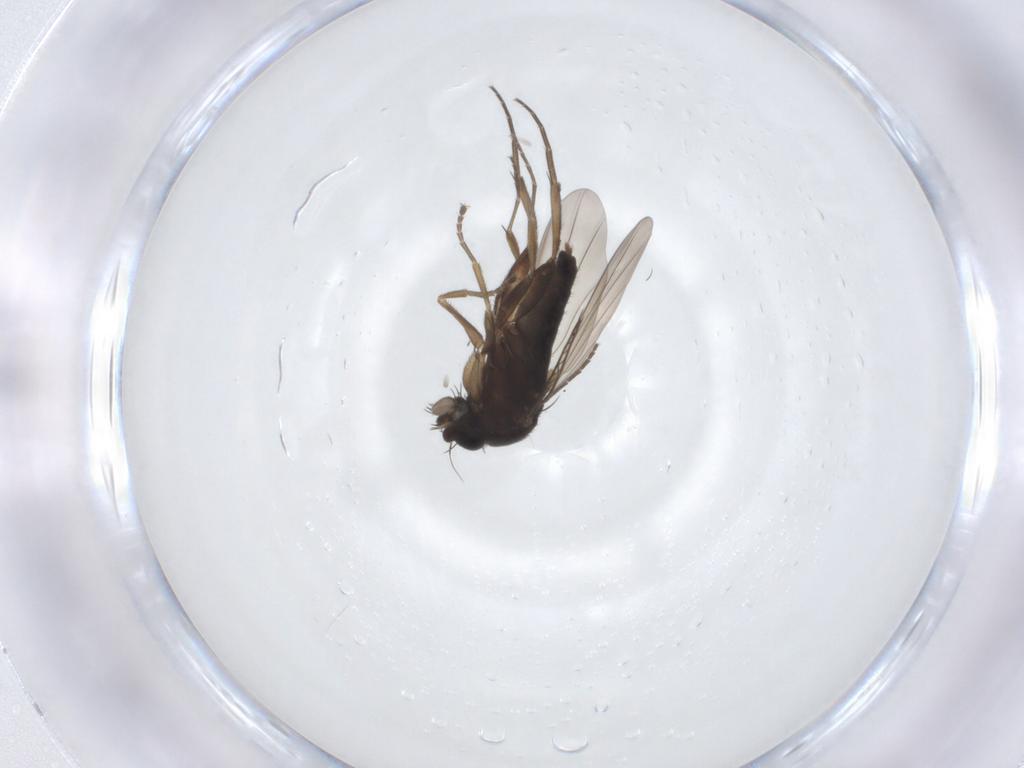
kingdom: Animalia
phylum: Arthropoda
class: Insecta
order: Diptera
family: Phoridae
